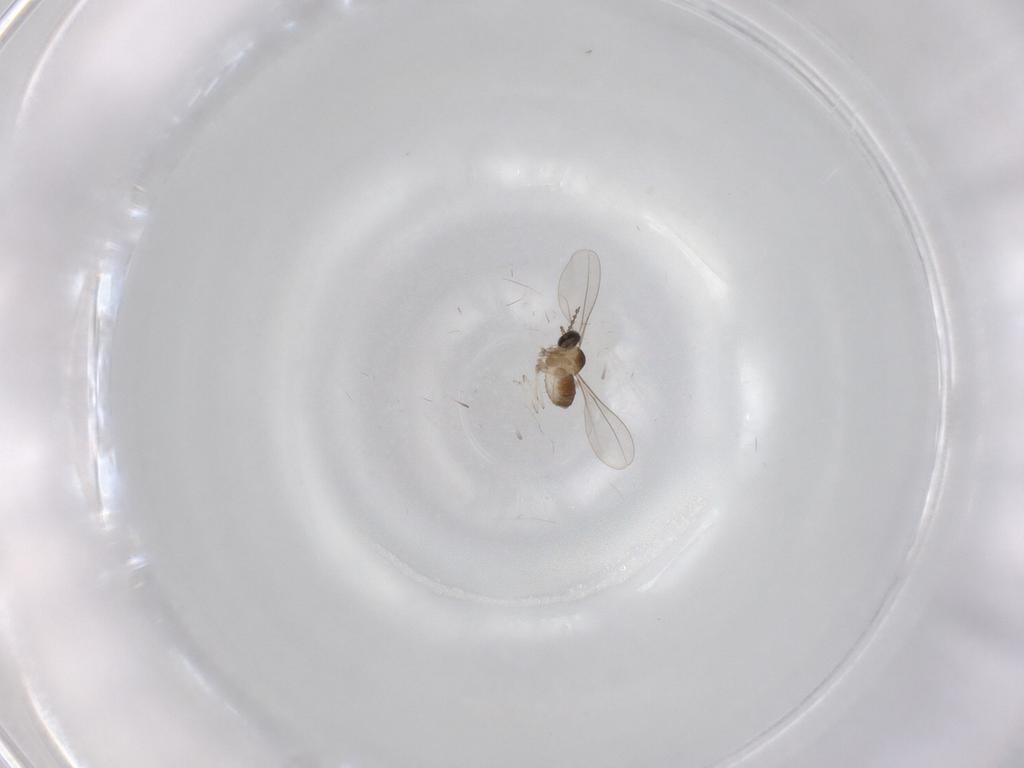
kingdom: Animalia
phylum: Arthropoda
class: Insecta
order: Diptera
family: Cecidomyiidae
